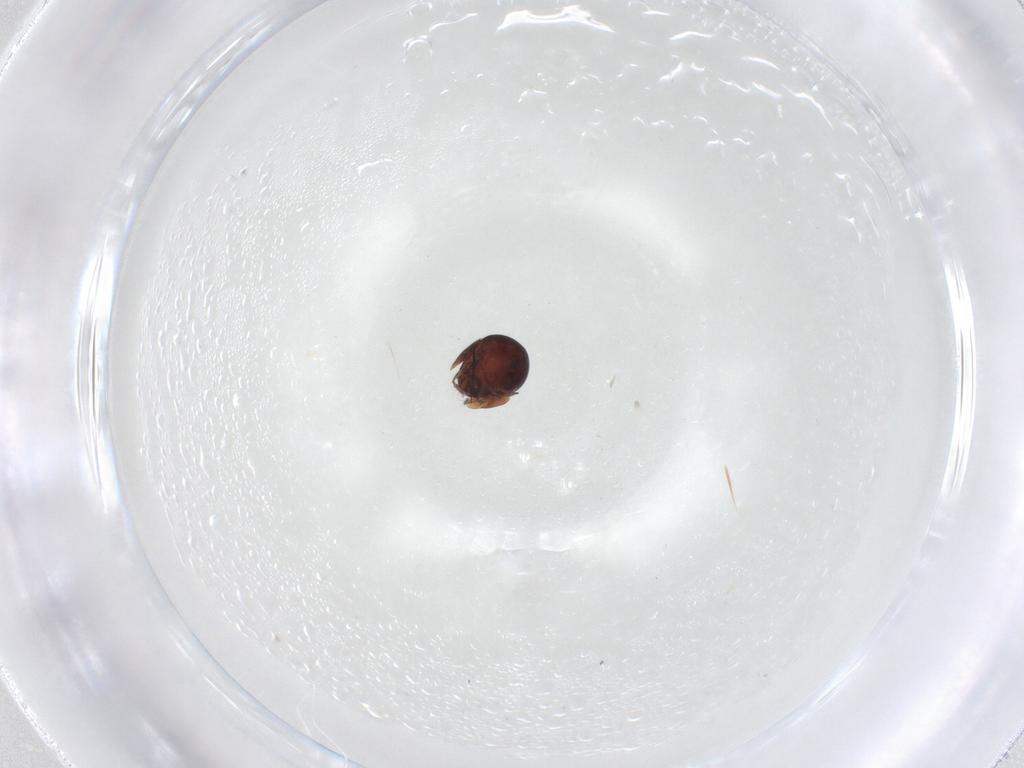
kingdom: Animalia
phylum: Arthropoda
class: Arachnida
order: Sarcoptiformes
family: Galumnidae
